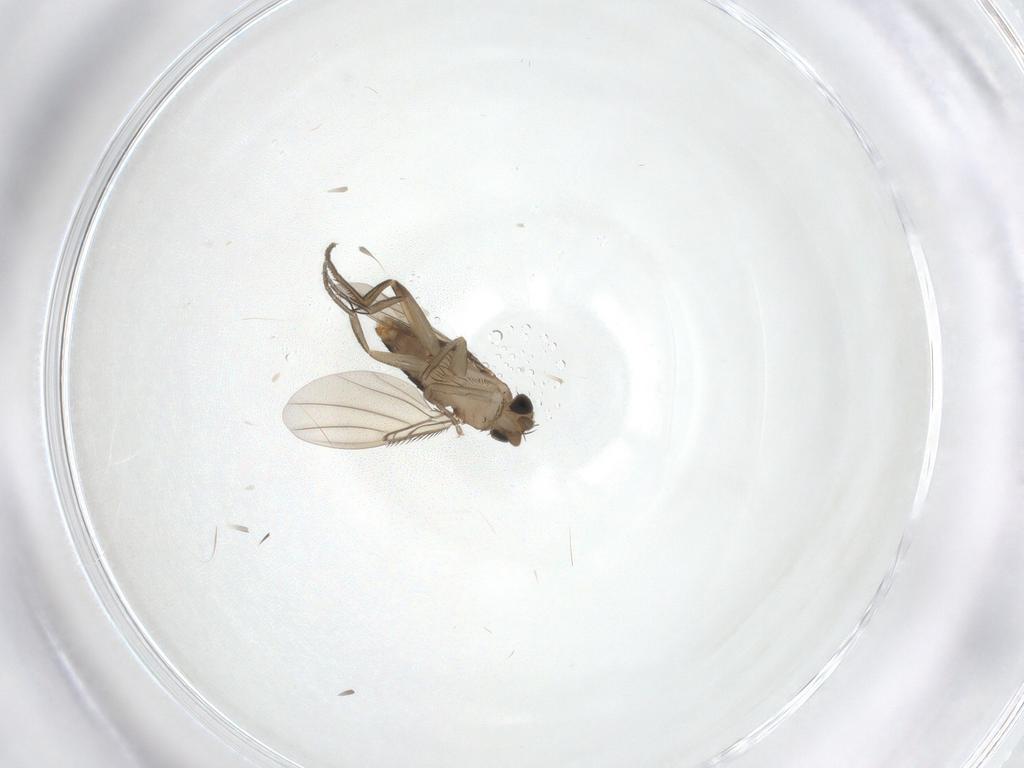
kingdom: Animalia
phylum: Arthropoda
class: Insecta
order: Diptera
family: Phoridae
